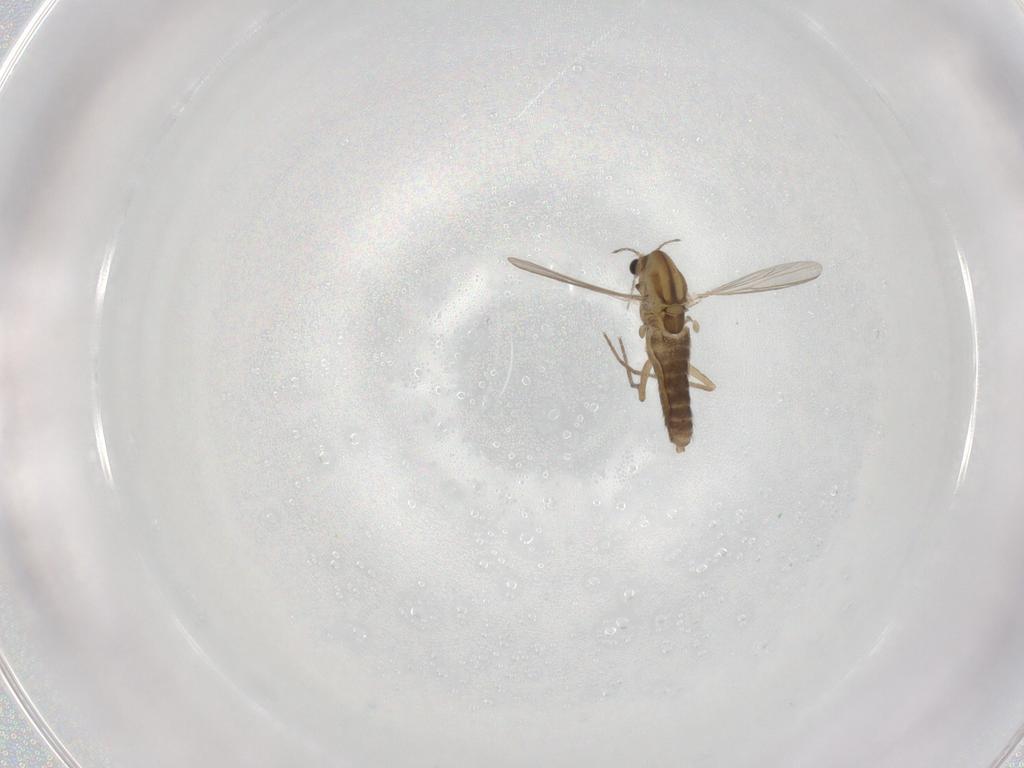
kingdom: Animalia
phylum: Arthropoda
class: Insecta
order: Diptera
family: Chironomidae
